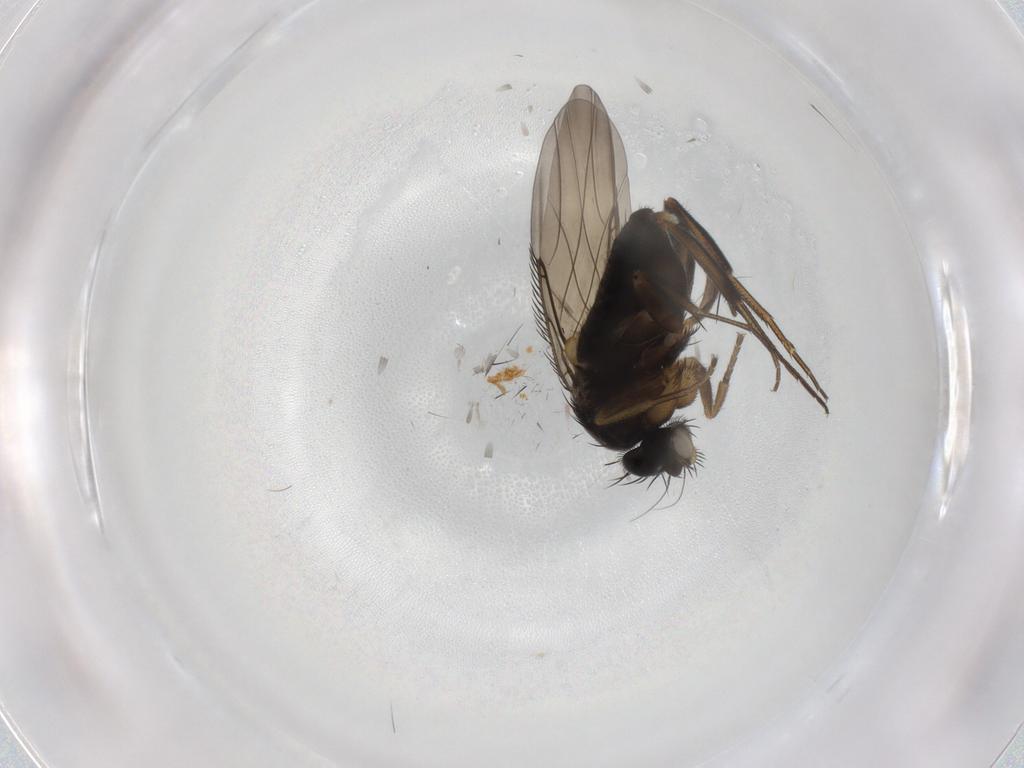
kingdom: Animalia
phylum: Arthropoda
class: Insecta
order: Diptera
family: Phoridae
